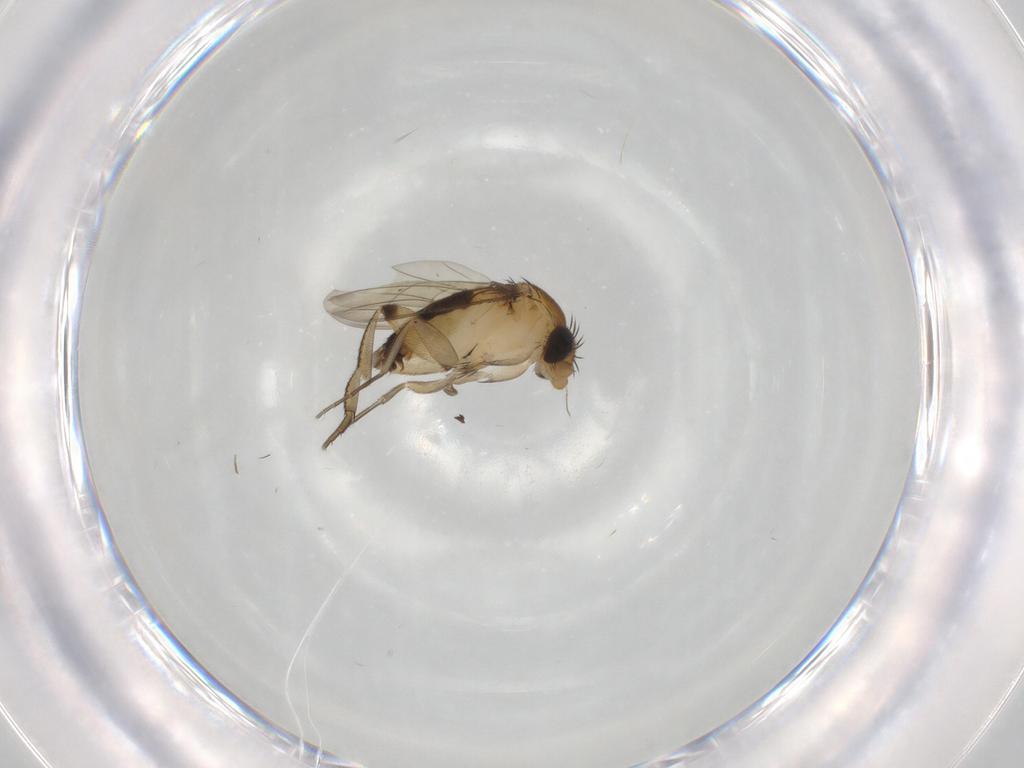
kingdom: Animalia
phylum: Arthropoda
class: Insecta
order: Diptera
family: Phoridae
